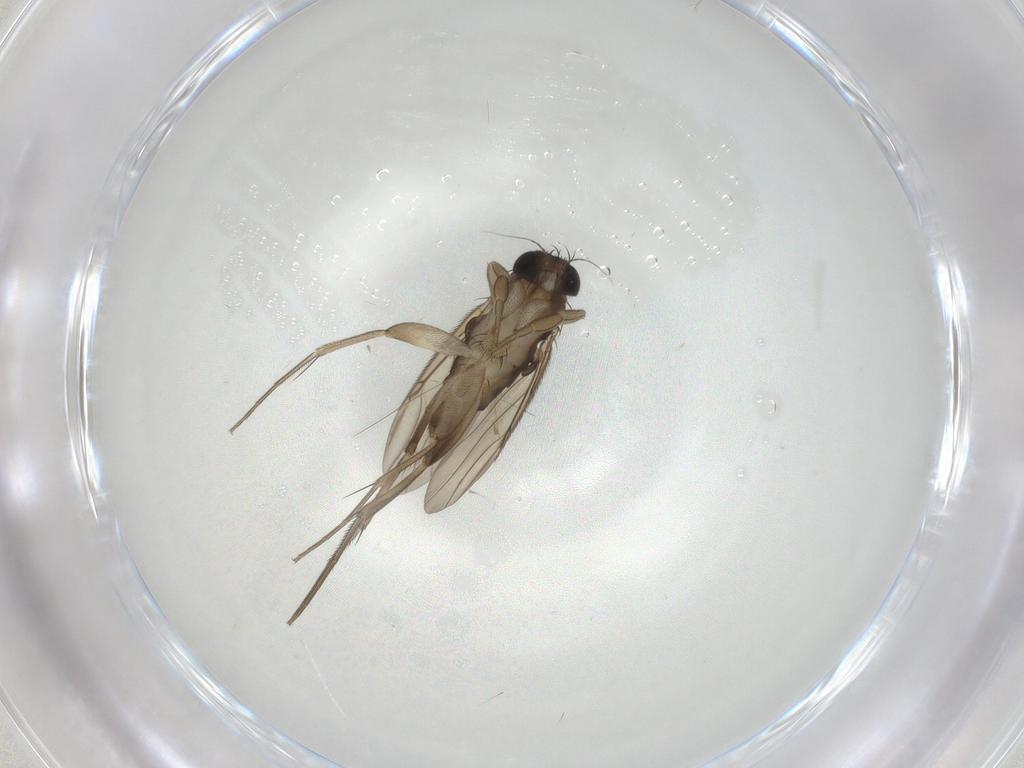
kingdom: Animalia
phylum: Arthropoda
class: Insecta
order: Diptera
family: Phoridae
